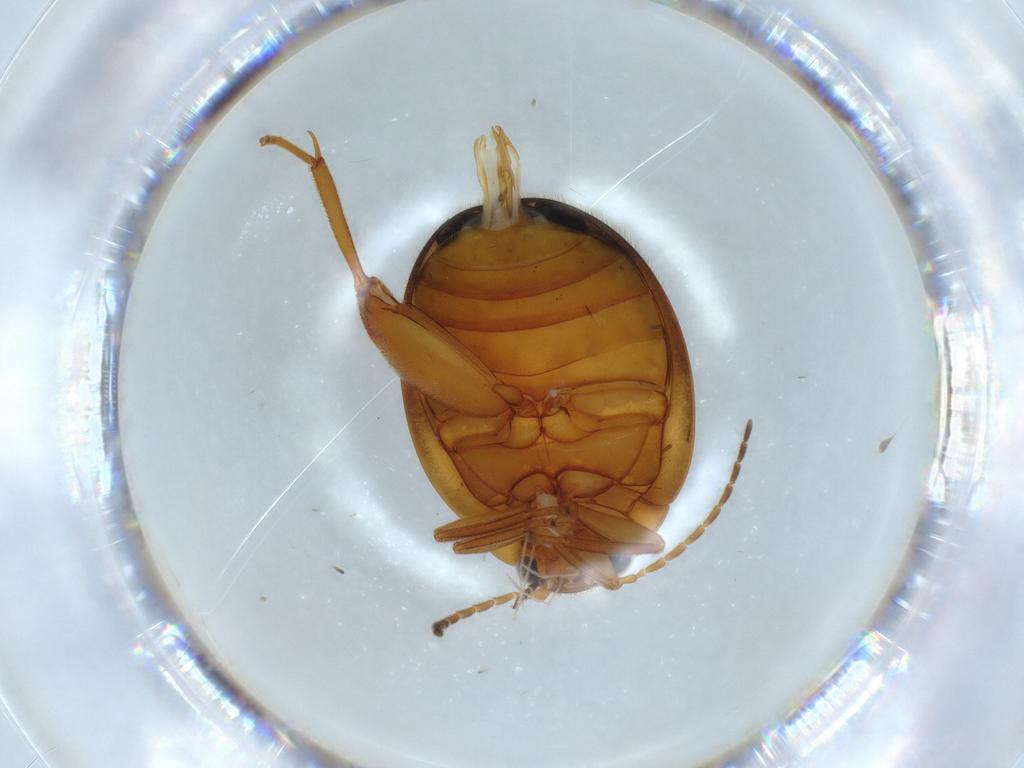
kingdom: Animalia
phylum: Arthropoda
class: Insecta
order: Coleoptera
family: Scirtidae
